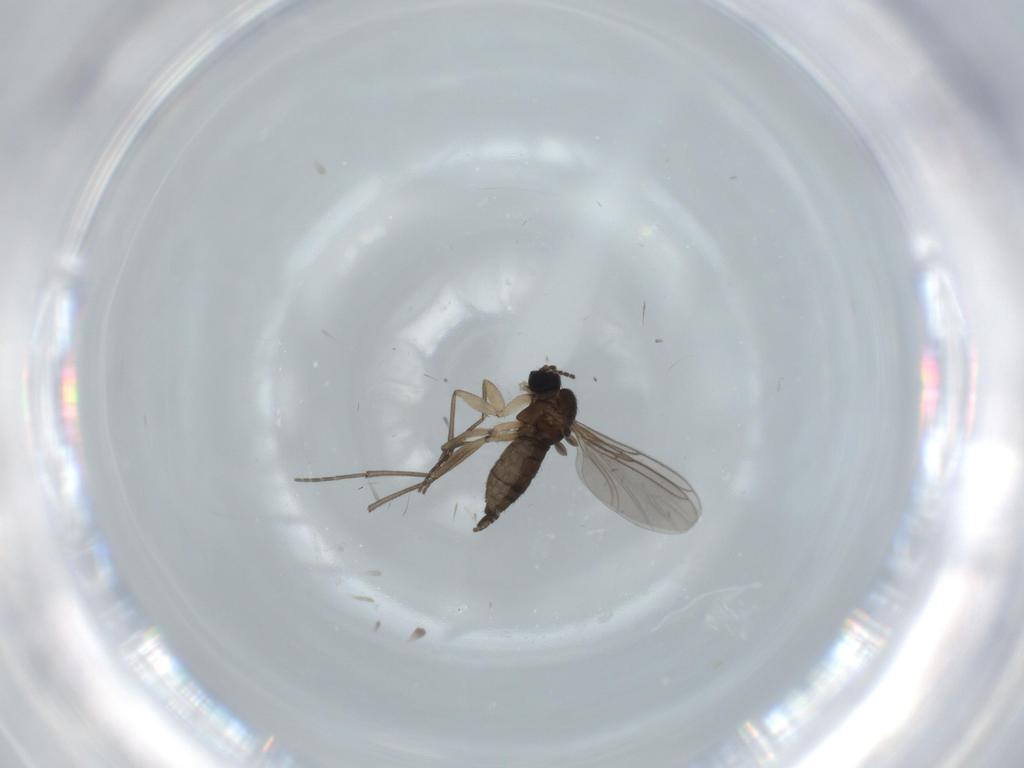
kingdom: Animalia
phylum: Arthropoda
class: Insecta
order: Diptera
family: Sciaridae
